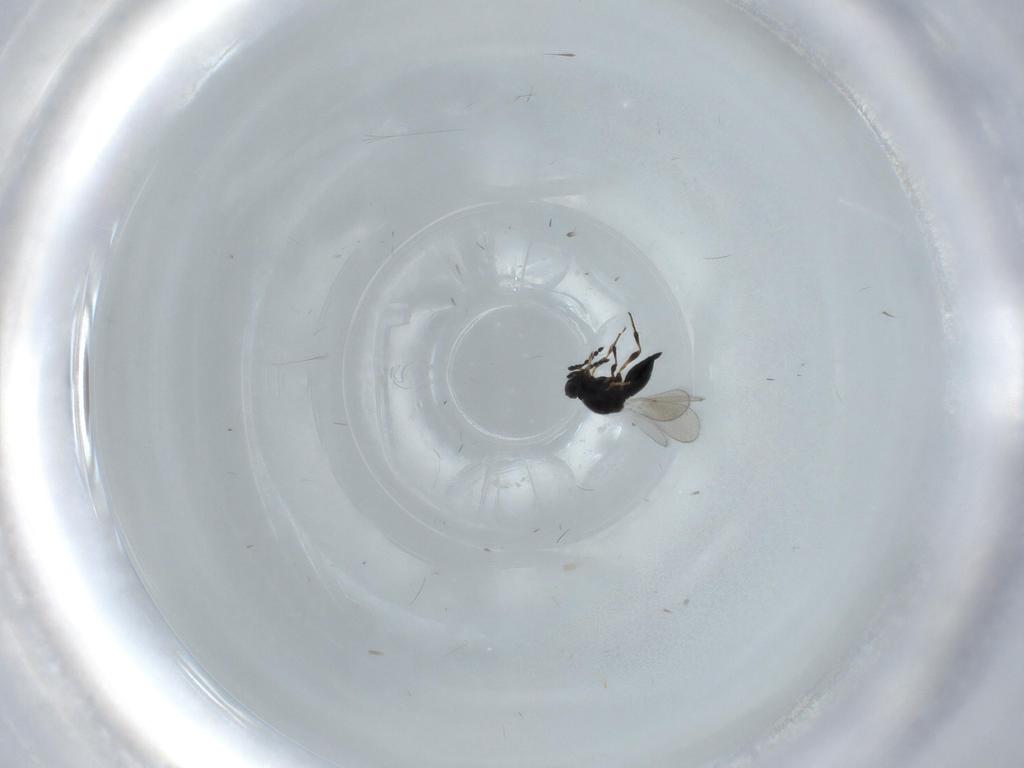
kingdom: Animalia
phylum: Arthropoda
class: Insecta
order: Hymenoptera
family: Platygastridae
